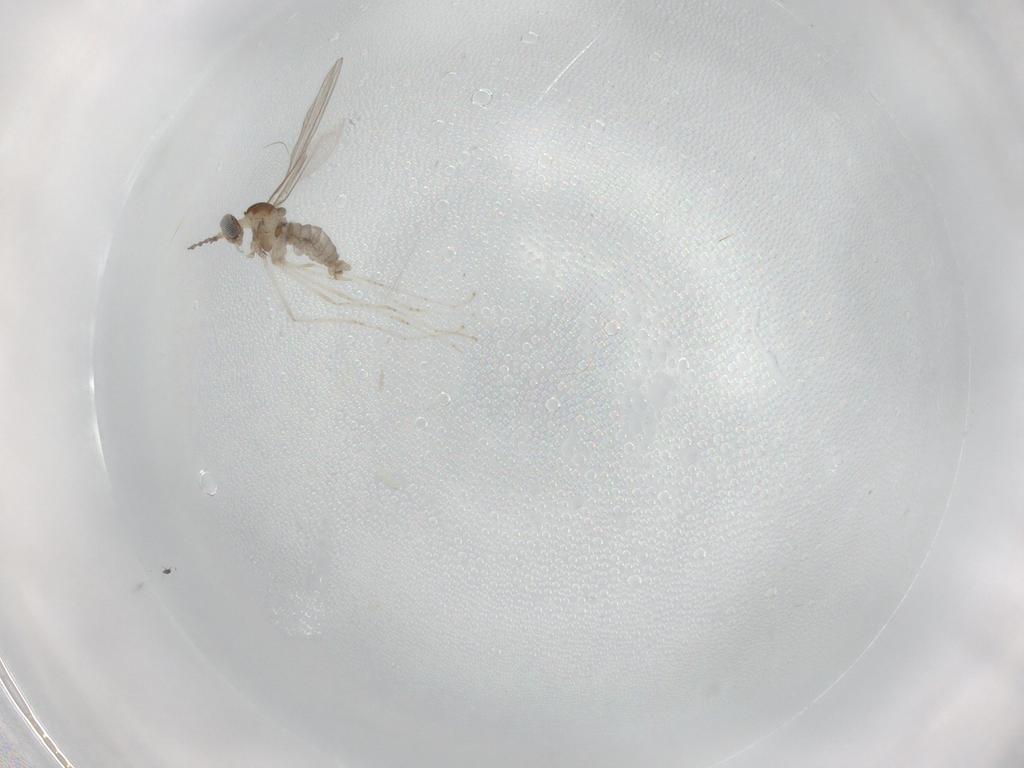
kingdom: Animalia
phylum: Arthropoda
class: Insecta
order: Diptera
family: Cecidomyiidae
